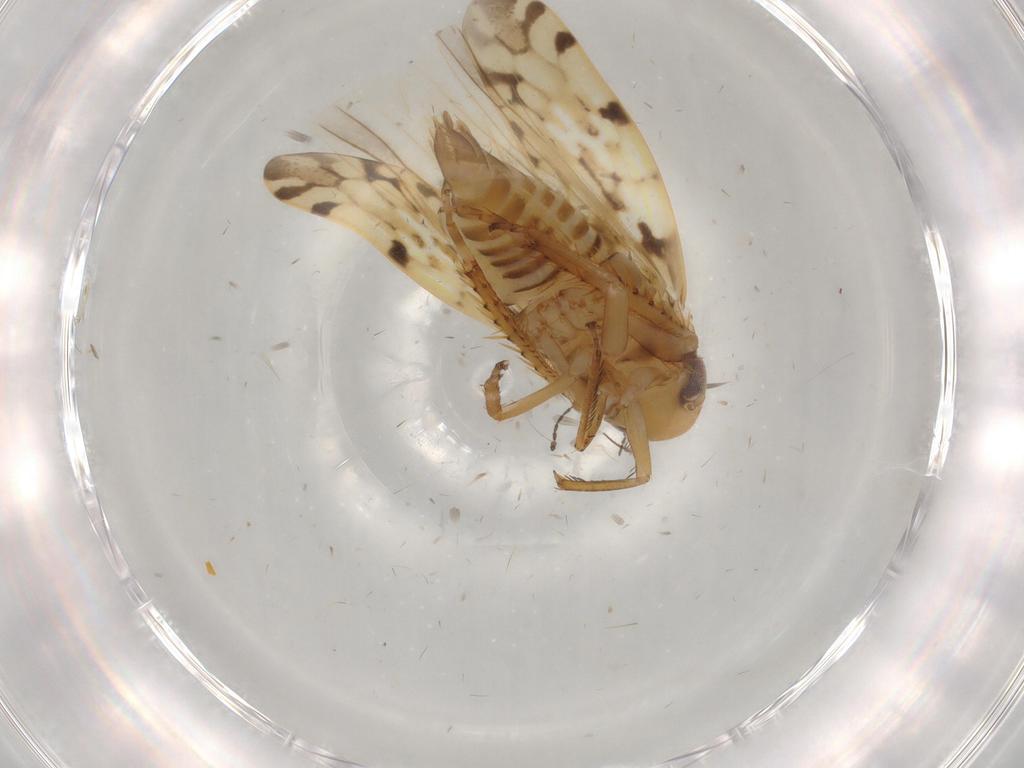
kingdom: Animalia
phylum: Arthropoda
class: Insecta
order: Hemiptera
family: Cicadellidae
